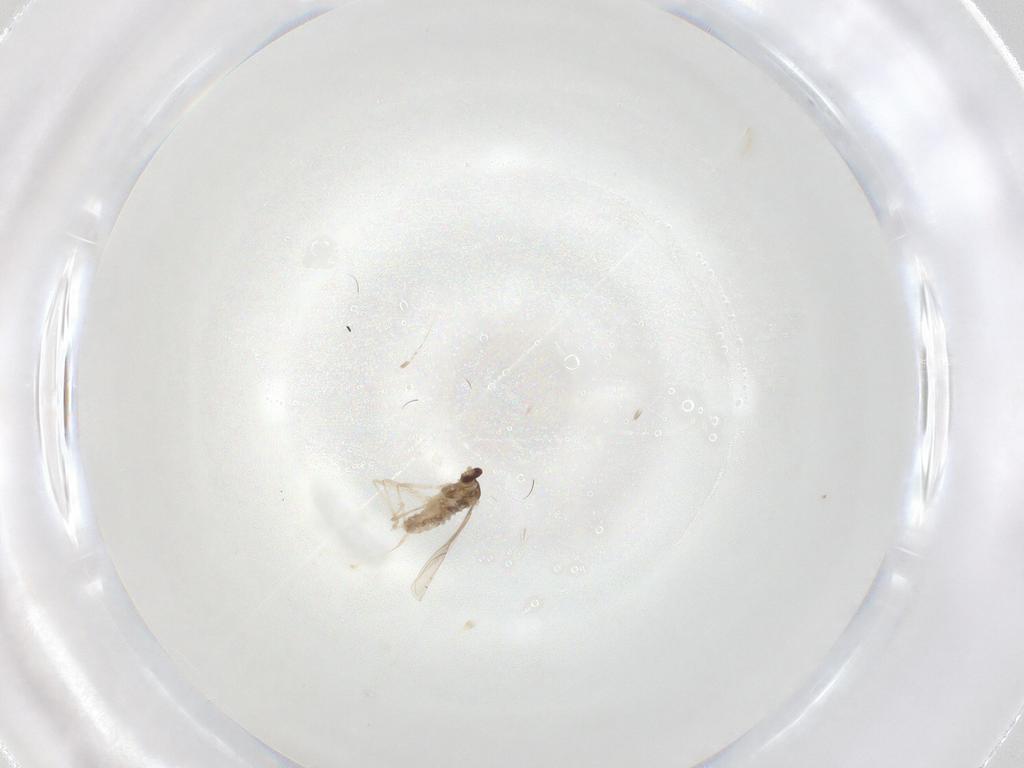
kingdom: Animalia
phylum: Arthropoda
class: Insecta
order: Diptera
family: Cecidomyiidae
